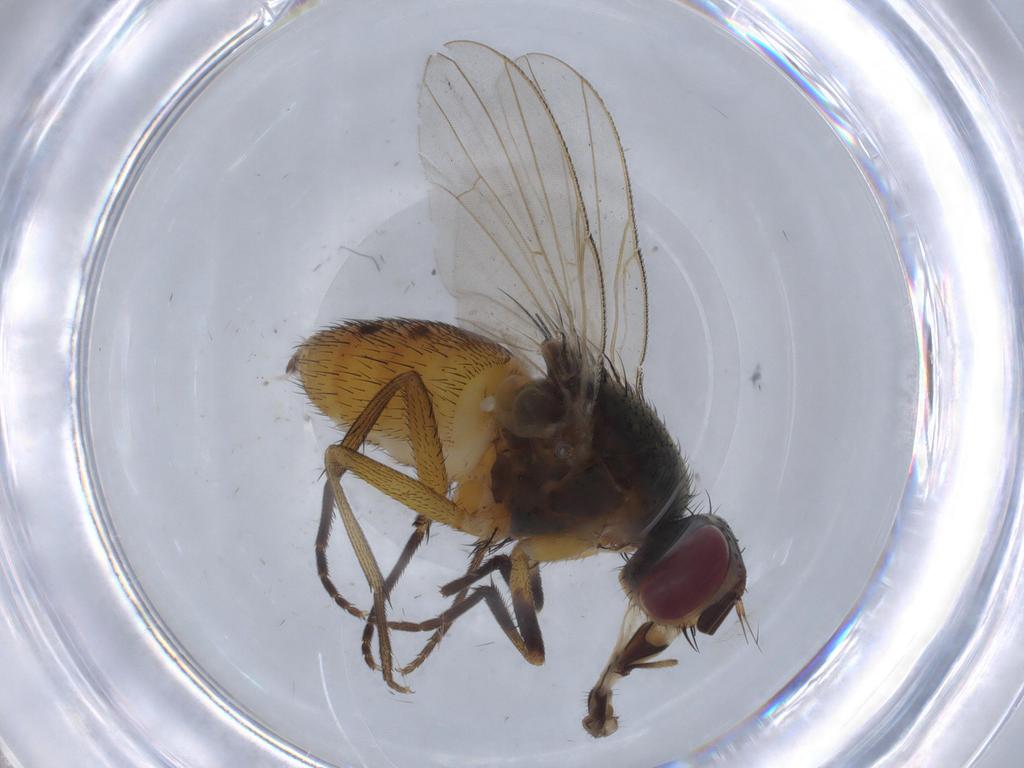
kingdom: Animalia
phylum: Arthropoda
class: Insecta
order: Diptera
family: Muscidae
